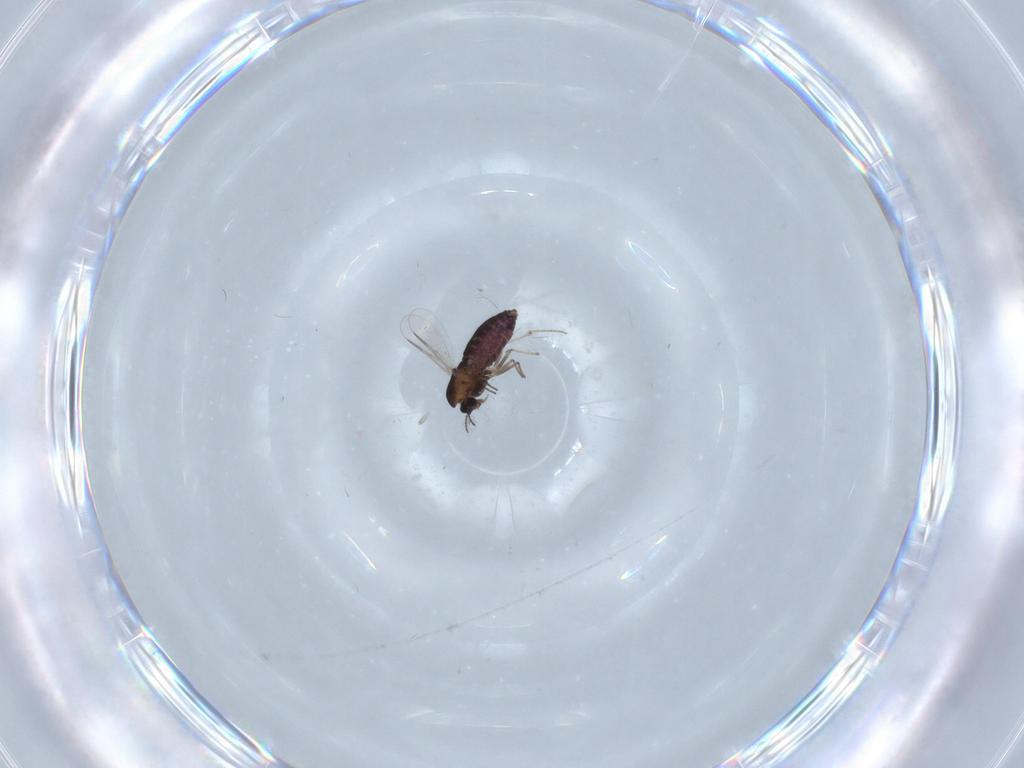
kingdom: Animalia
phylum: Arthropoda
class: Insecta
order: Diptera
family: Chironomidae
